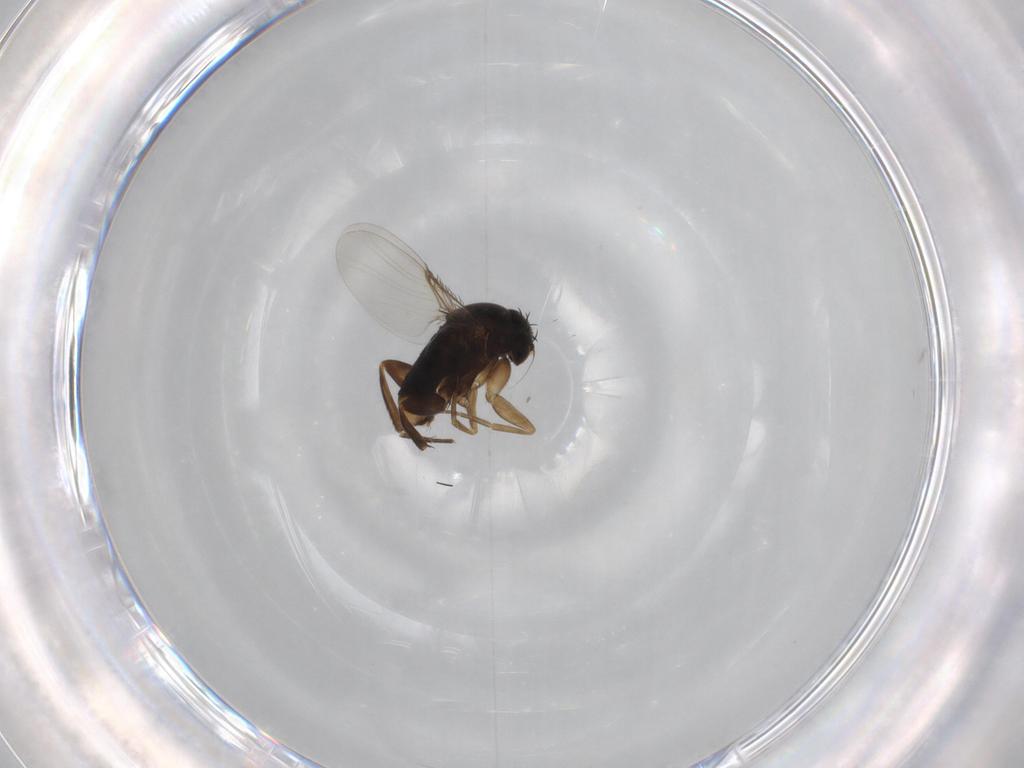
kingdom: Animalia
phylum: Arthropoda
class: Insecta
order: Diptera
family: Phoridae
